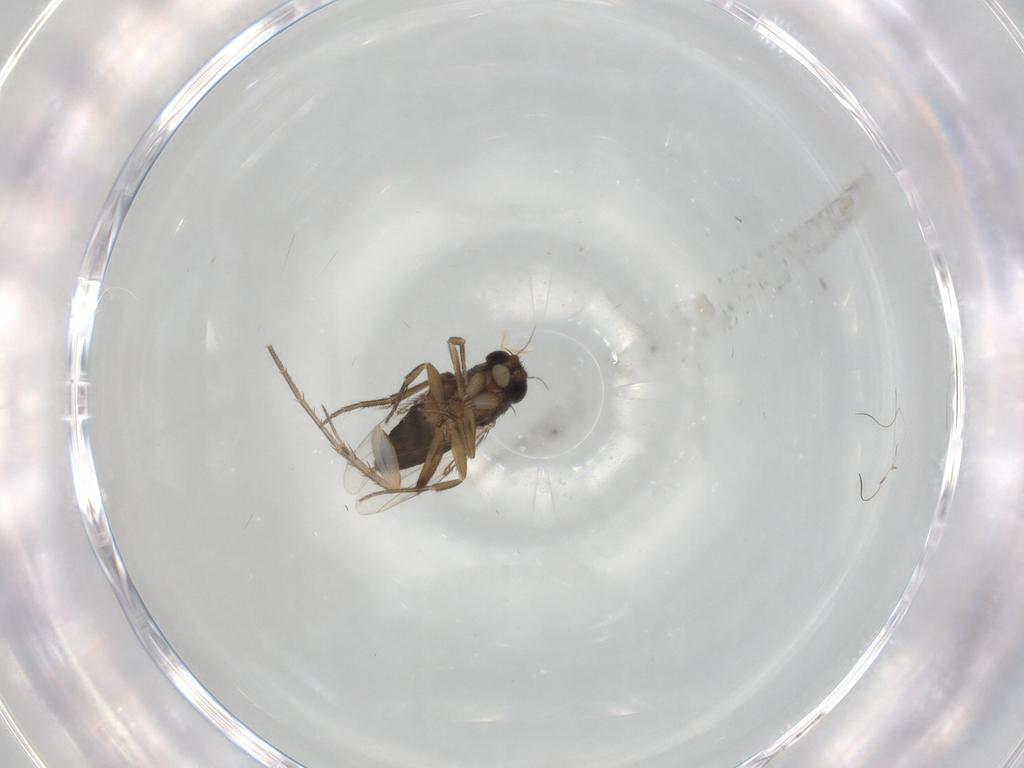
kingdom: Animalia
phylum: Arthropoda
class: Insecta
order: Diptera
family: Phoridae
